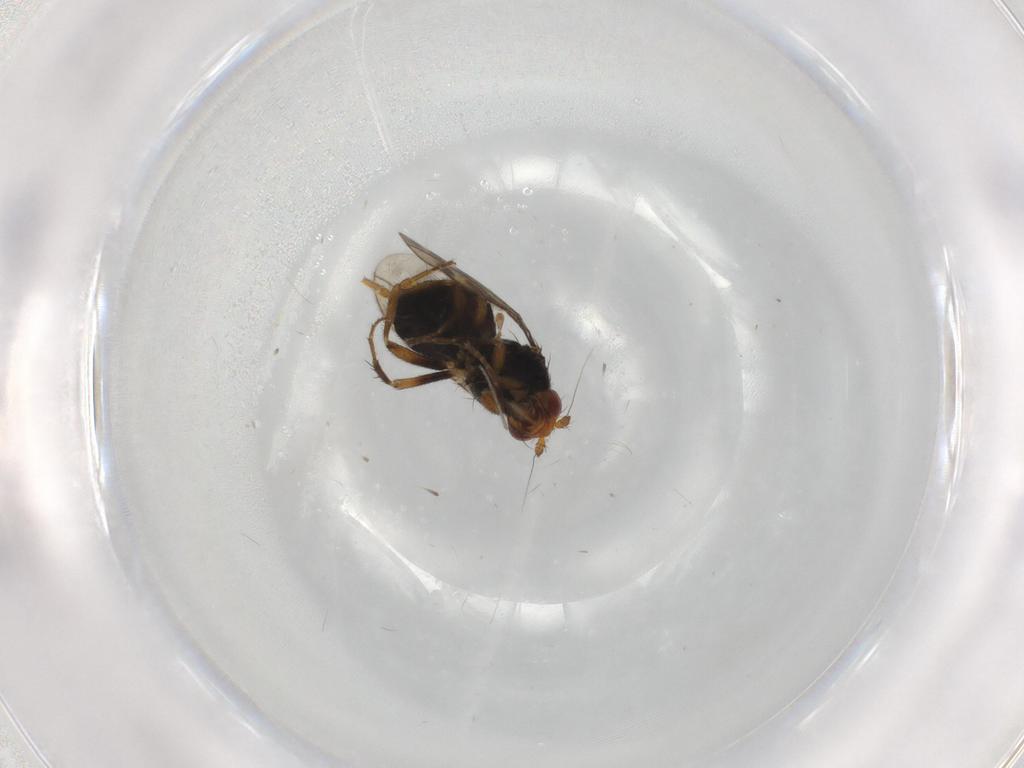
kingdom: Animalia
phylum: Arthropoda
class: Insecta
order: Diptera
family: Sphaeroceridae
